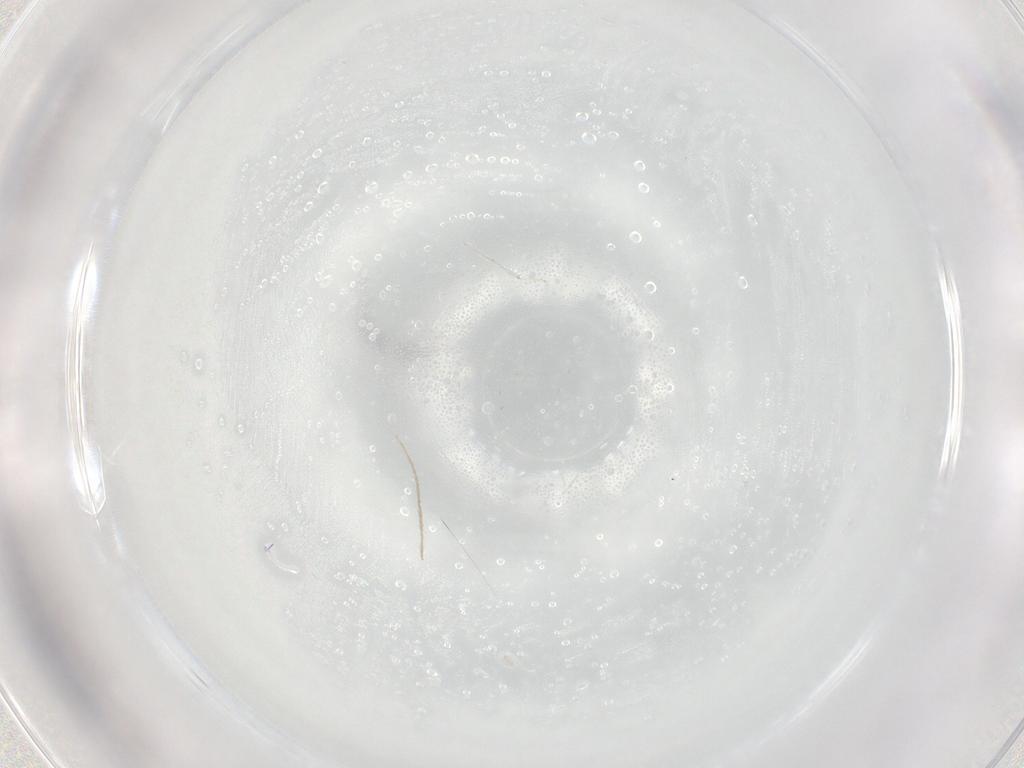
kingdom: Animalia
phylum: Arthropoda
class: Insecta
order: Diptera
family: Chironomidae
